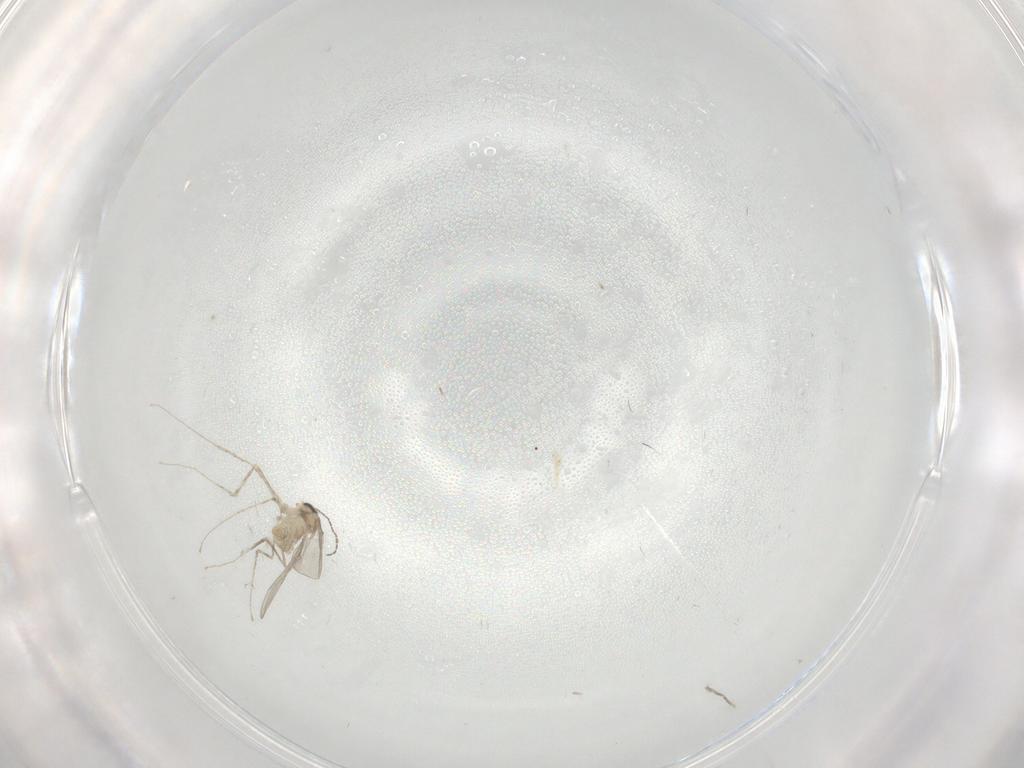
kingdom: Animalia
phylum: Arthropoda
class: Insecta
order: Diptera
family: Cecidomyiidae
